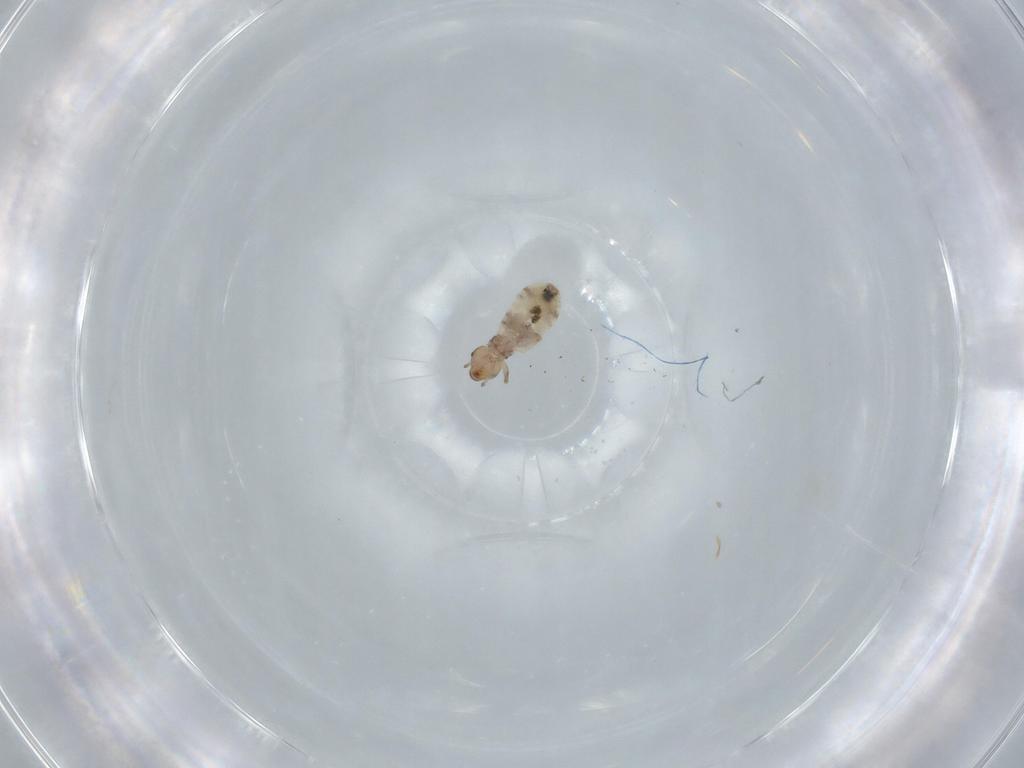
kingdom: Animalia
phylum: Arthropoda
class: Insecta
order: Psocodea
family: Liposcelididae
